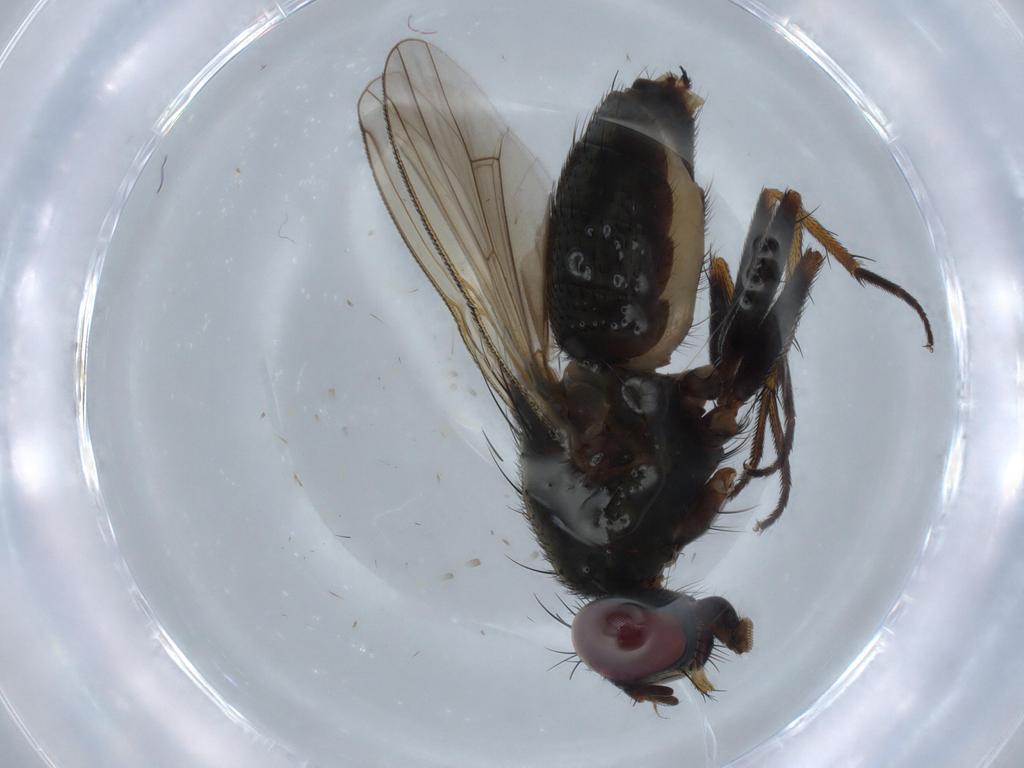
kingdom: Animalia
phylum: Arthropoda
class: Insecta
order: Diptera
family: Muscidae
